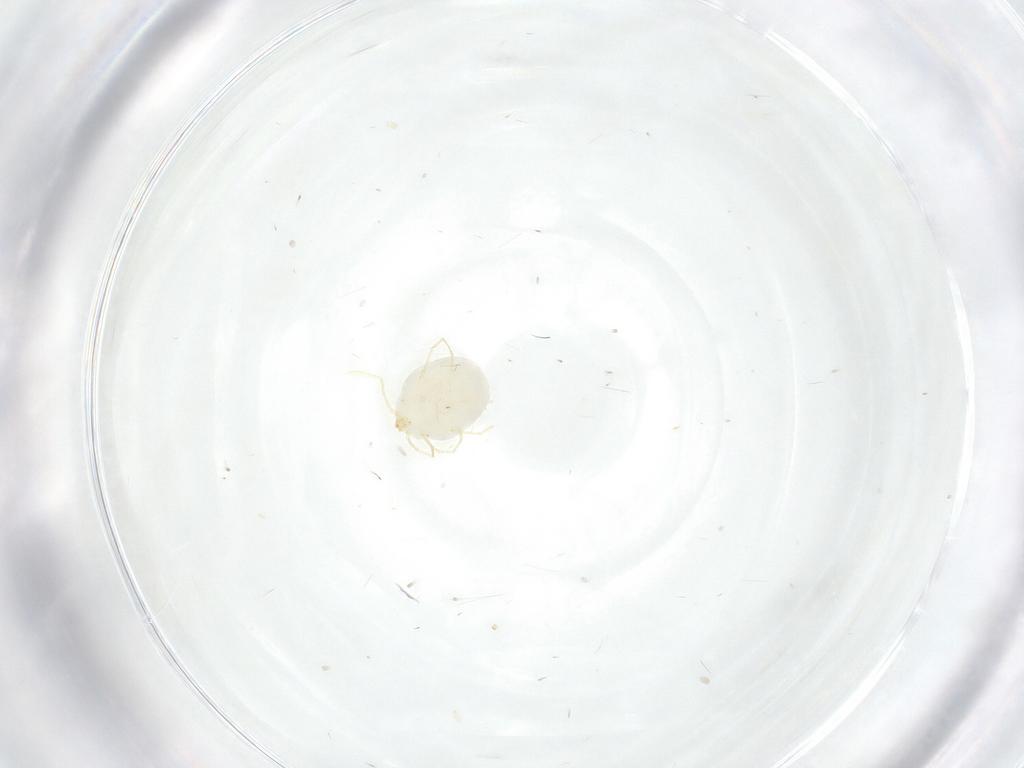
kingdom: Animalia
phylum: Arthropoda
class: Arachnida
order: Trombidiformes
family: Erythraeidae
